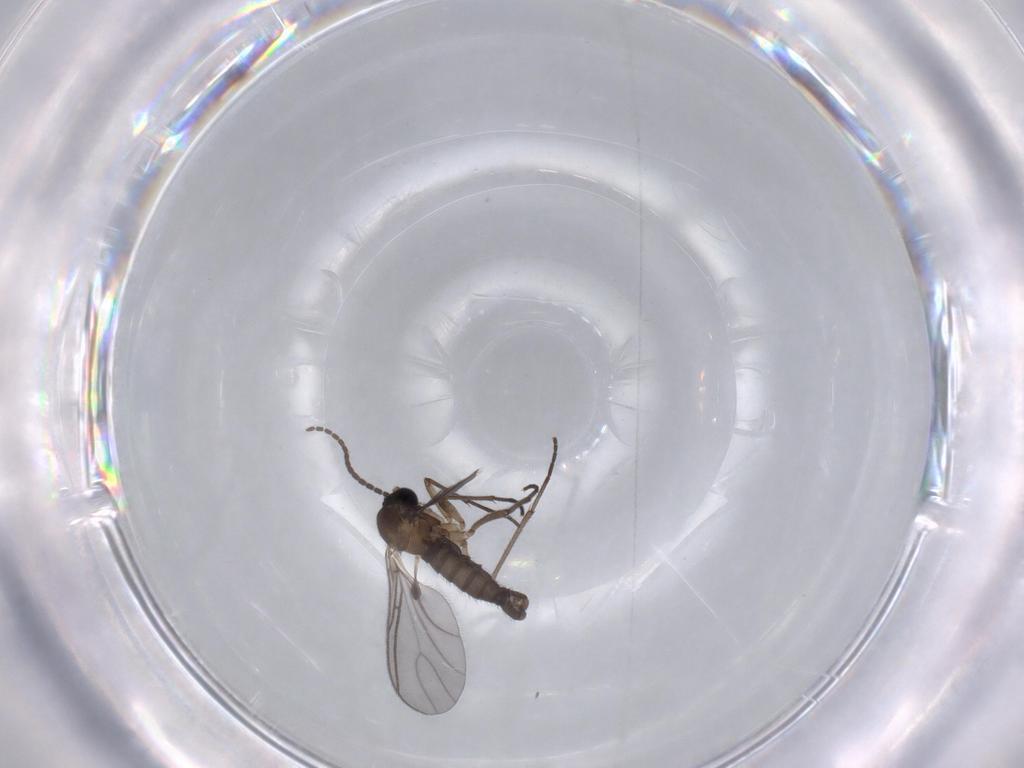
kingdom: Animalia
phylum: Arthropoda
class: Insecta
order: Diptera
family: Sciaridae
